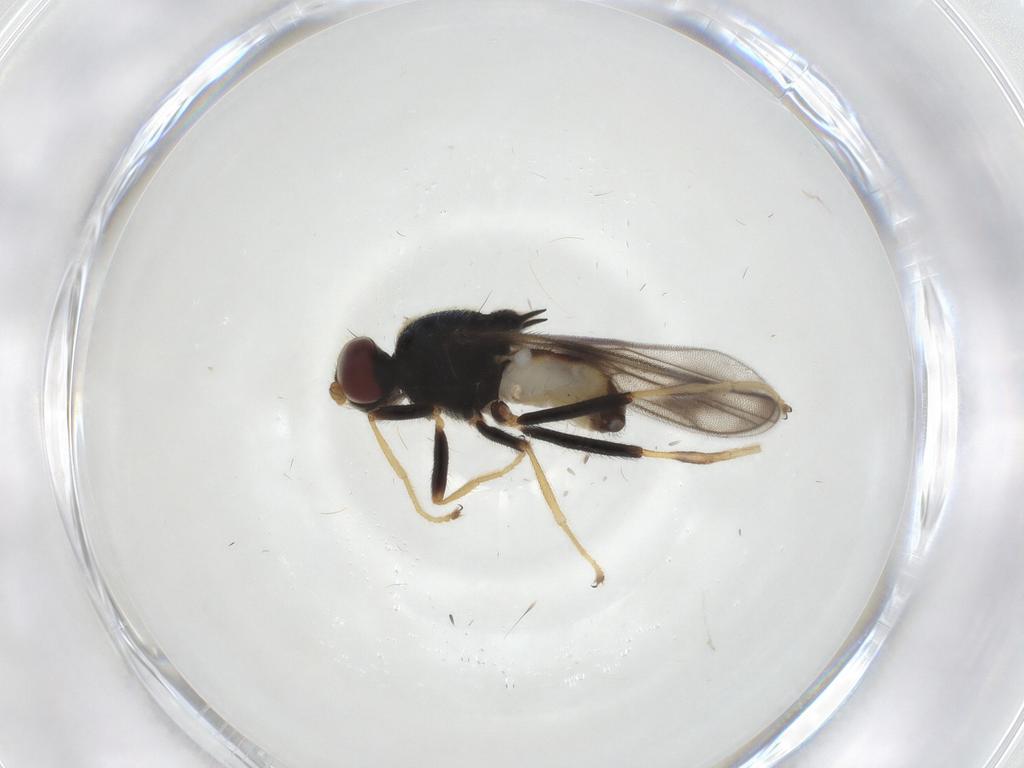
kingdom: Animalia
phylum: Arthropoda
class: Insecta
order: Diptera
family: Chloropidae
